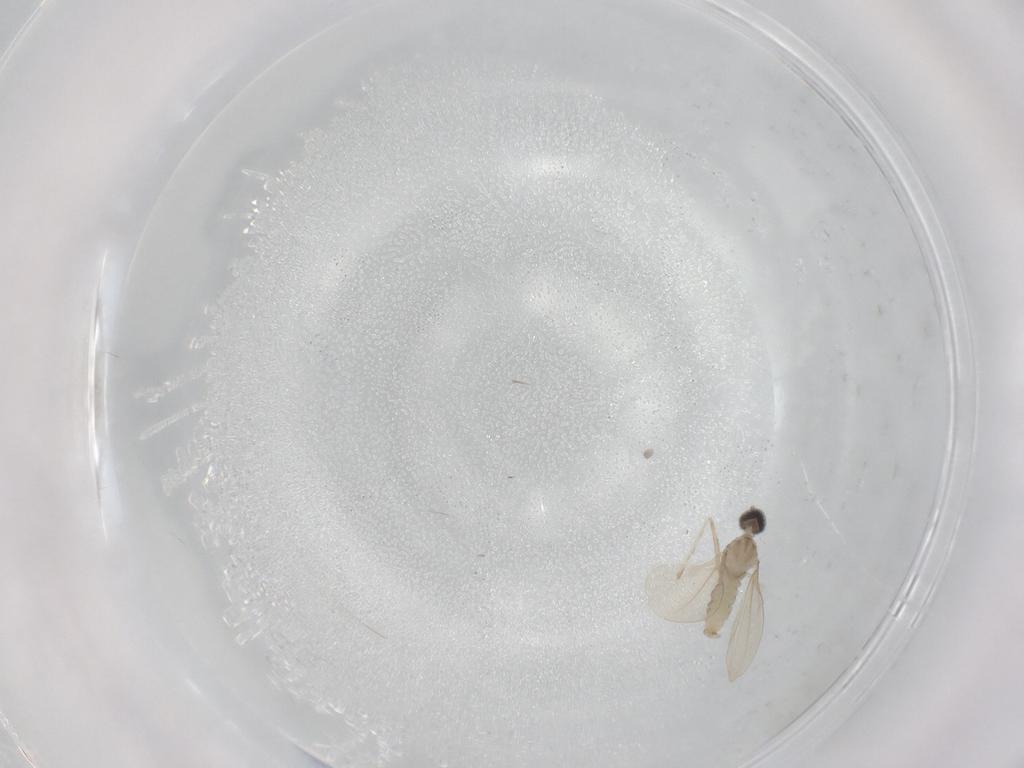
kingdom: Animalia
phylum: Arthropoda
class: Insecta
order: Diptera
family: Cecidomyiidae
